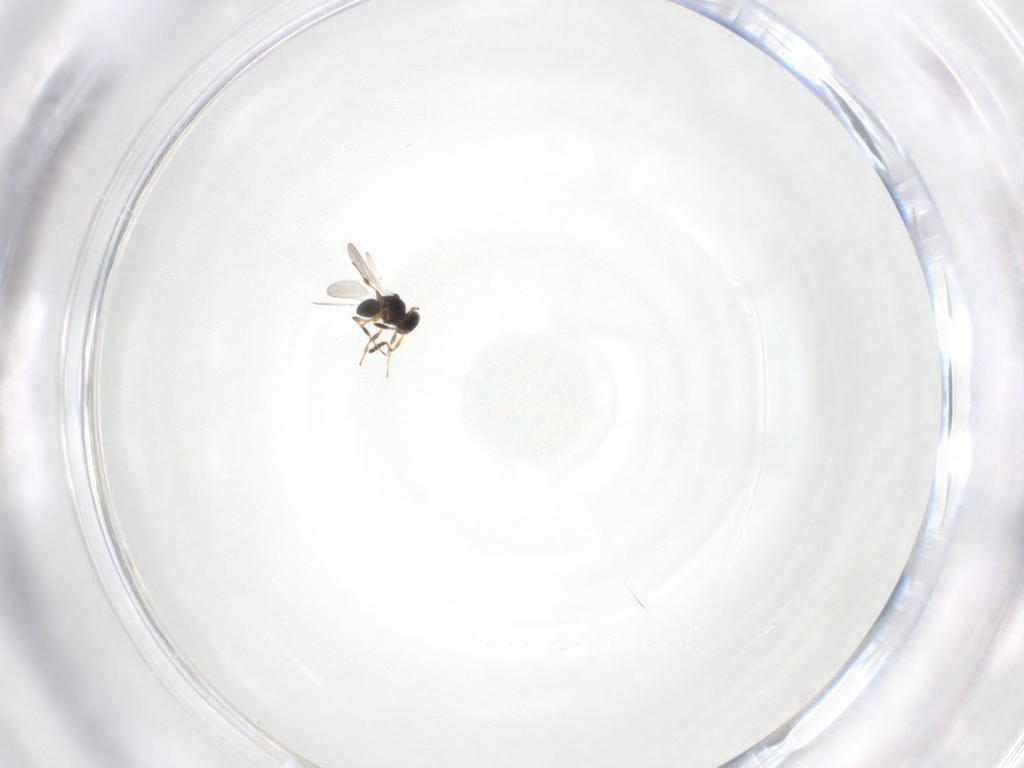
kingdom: Animalia
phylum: Arthropoda
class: Insecta
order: Hymenoptera
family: Platygastridae
